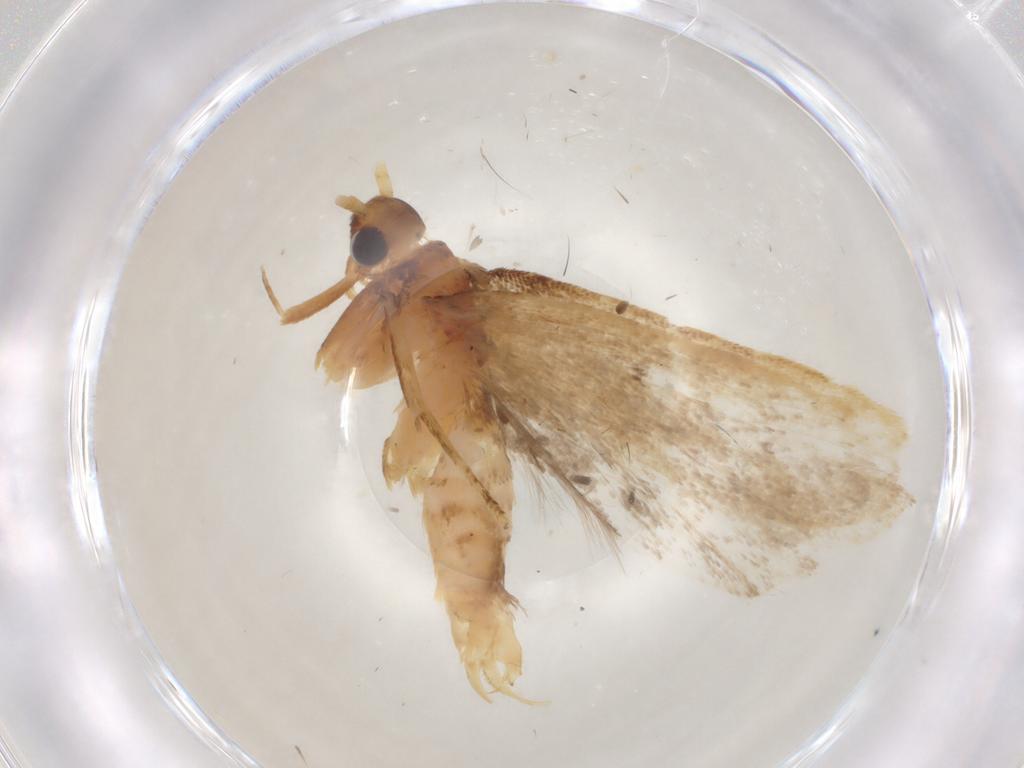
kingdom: Animalia
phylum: Arthropoda
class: Insecta
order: Lepidoptera
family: Lecithoceridae
